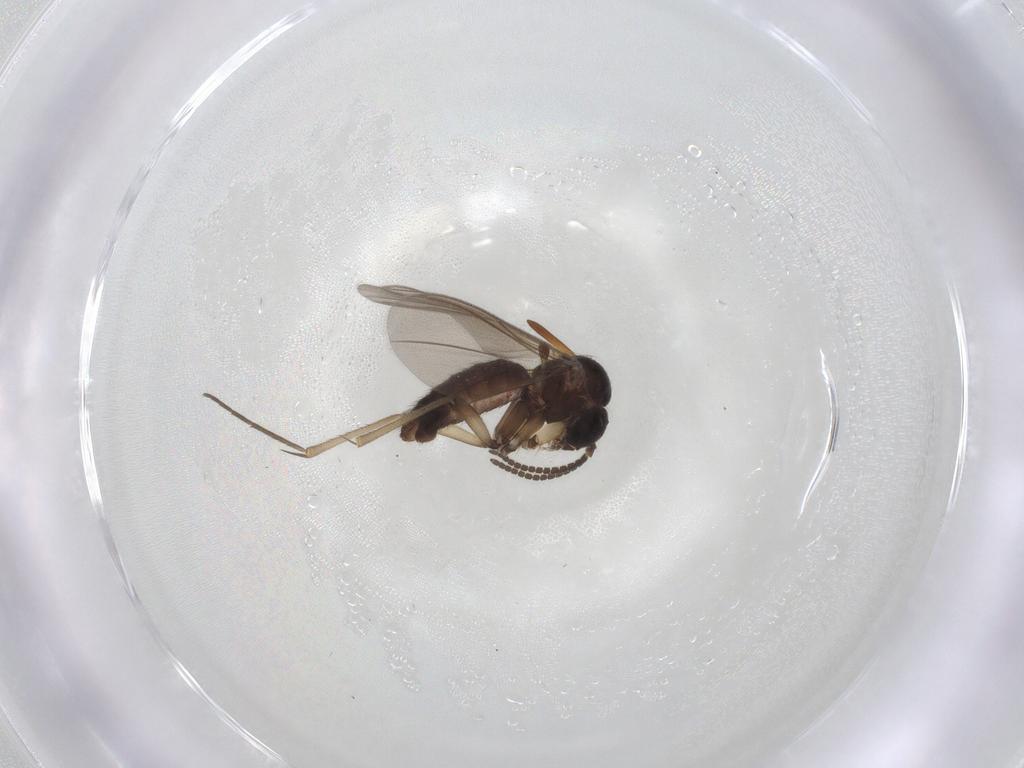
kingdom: Animalia
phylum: Arthropoda
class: Insecta
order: Diptera
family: Mycetophilidae
